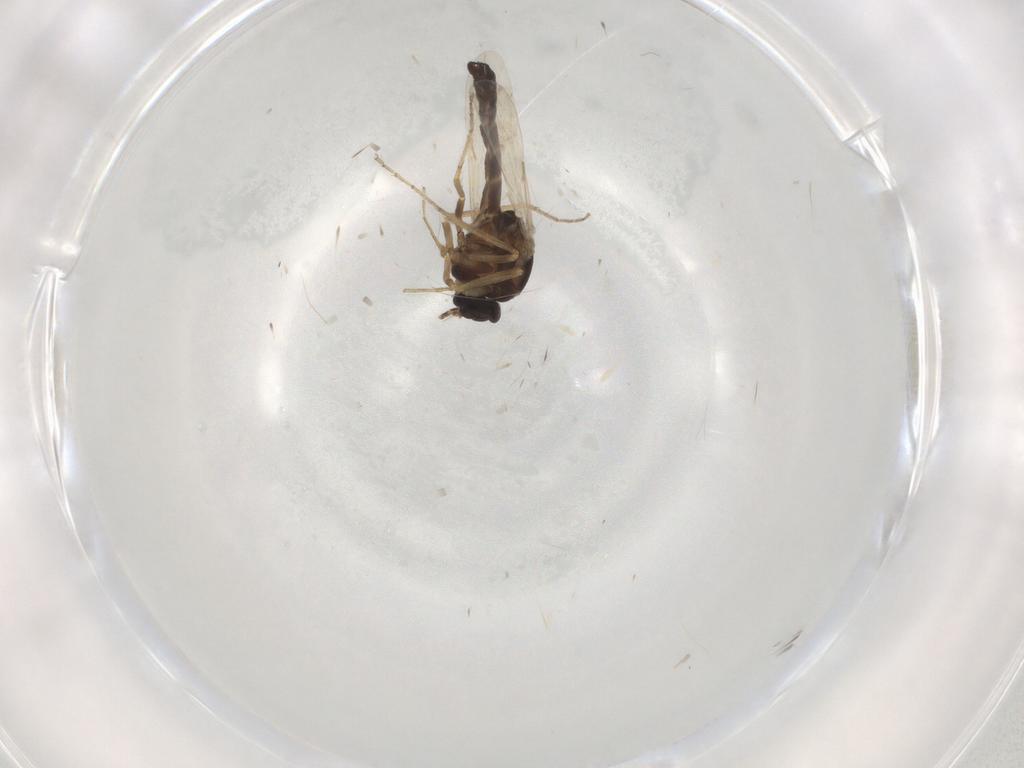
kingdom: Animalia
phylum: Arthropoda
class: Insecta
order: Diptera
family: Ceratopogonidae
